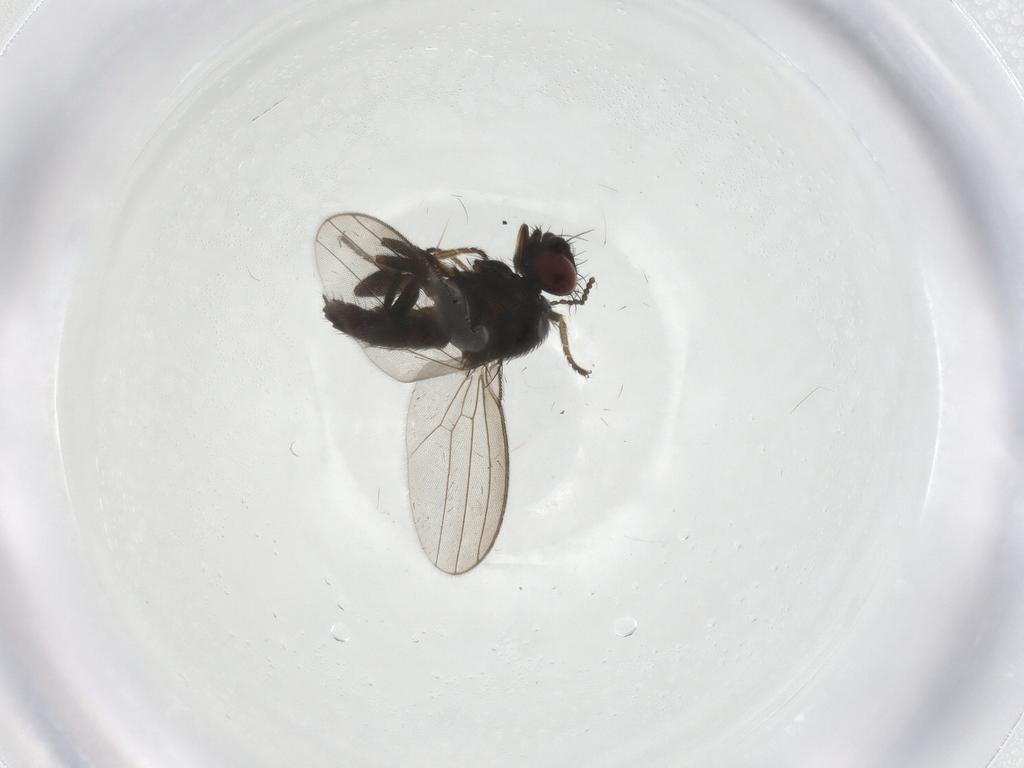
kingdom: Animalia
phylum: Arthropoda
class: Insecta
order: Diptera
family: Milichiidae
